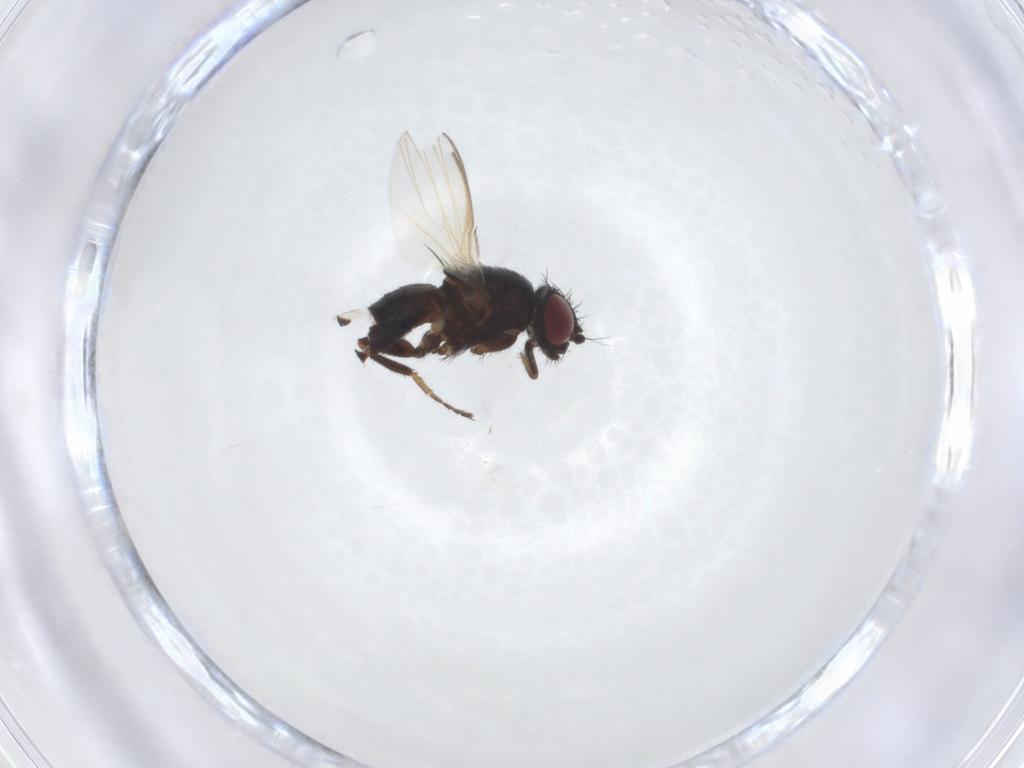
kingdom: Animalia
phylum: Arthropoda
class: Insecta
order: Diptera
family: Milichiidae
